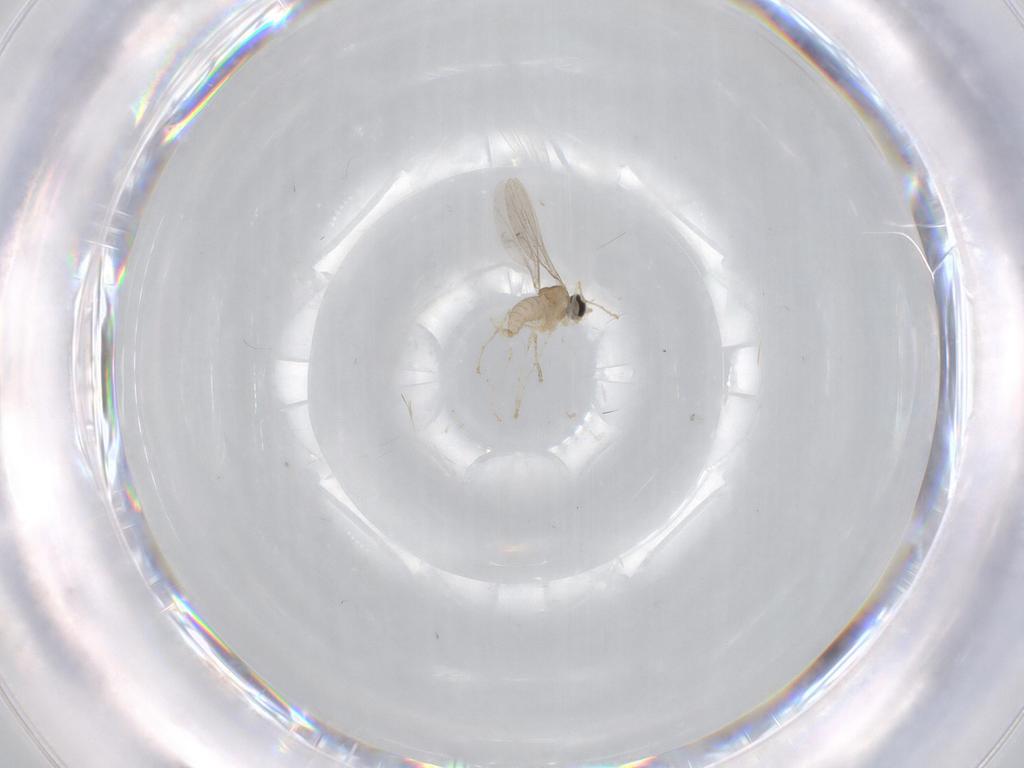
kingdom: Animalia
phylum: Arthropoda
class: Insecta
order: Diptera
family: Cecidomyiidae
